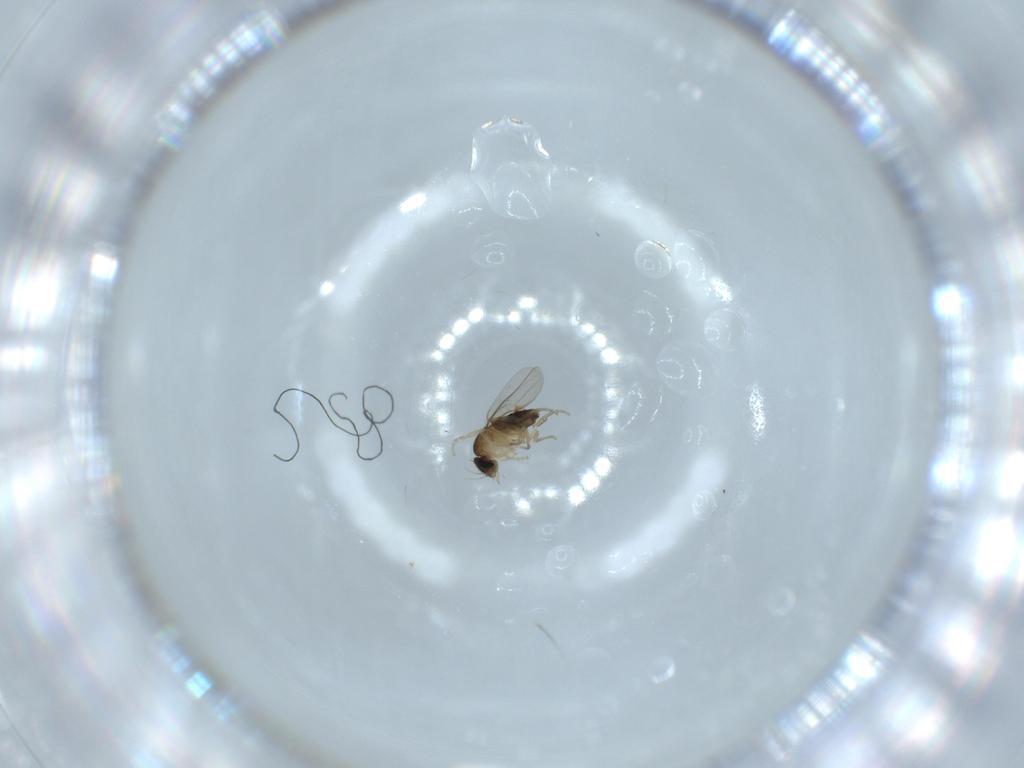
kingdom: Animalia
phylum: Arthropoda
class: Insecta
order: Diptera
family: Phoridae
